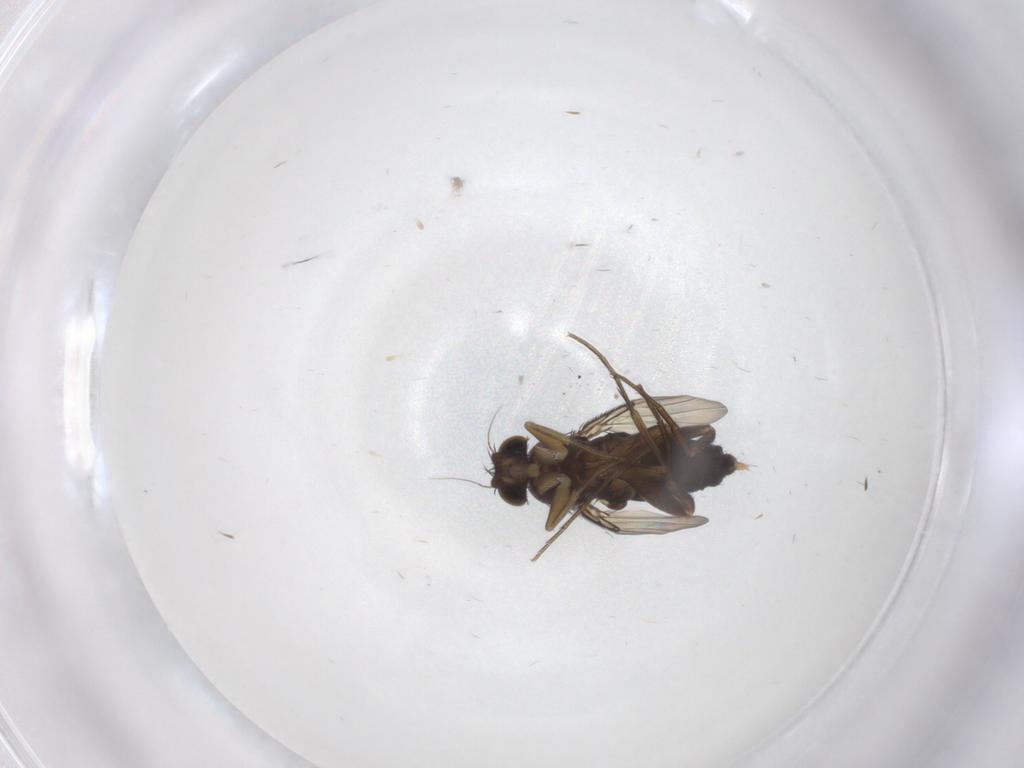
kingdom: Animalia
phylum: Arthropoda
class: Insecta
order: Diptera
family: Phoridae
